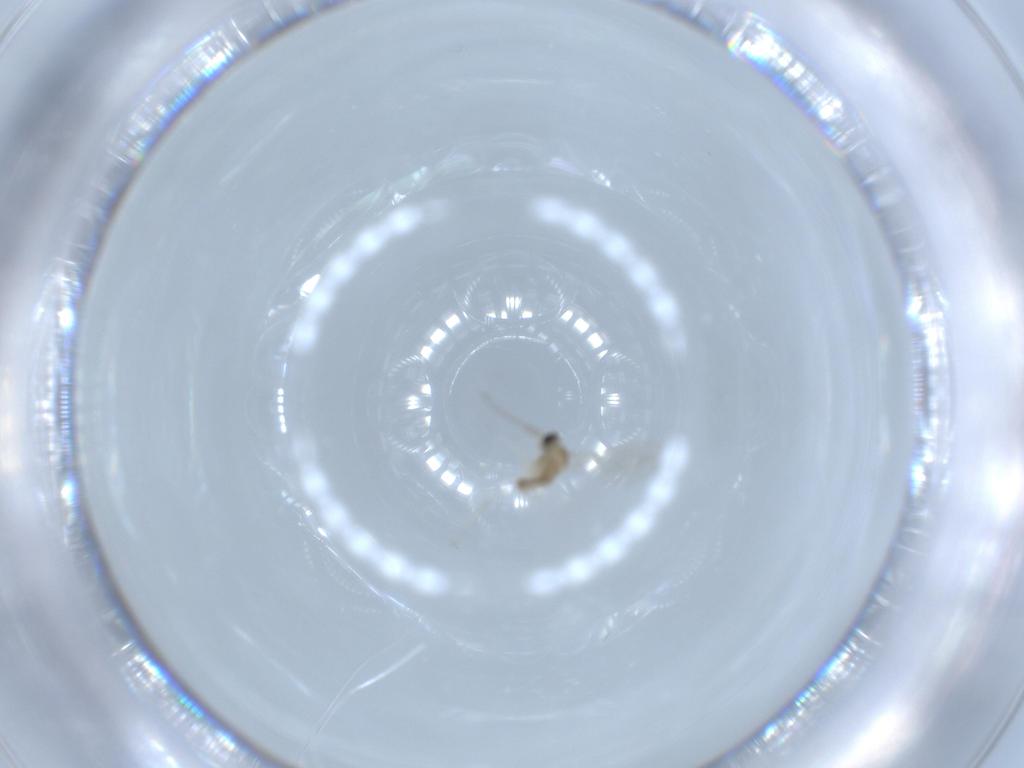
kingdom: Animalia
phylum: Arthropoda
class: Insecta
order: Diptera
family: Cecidomyiidae
